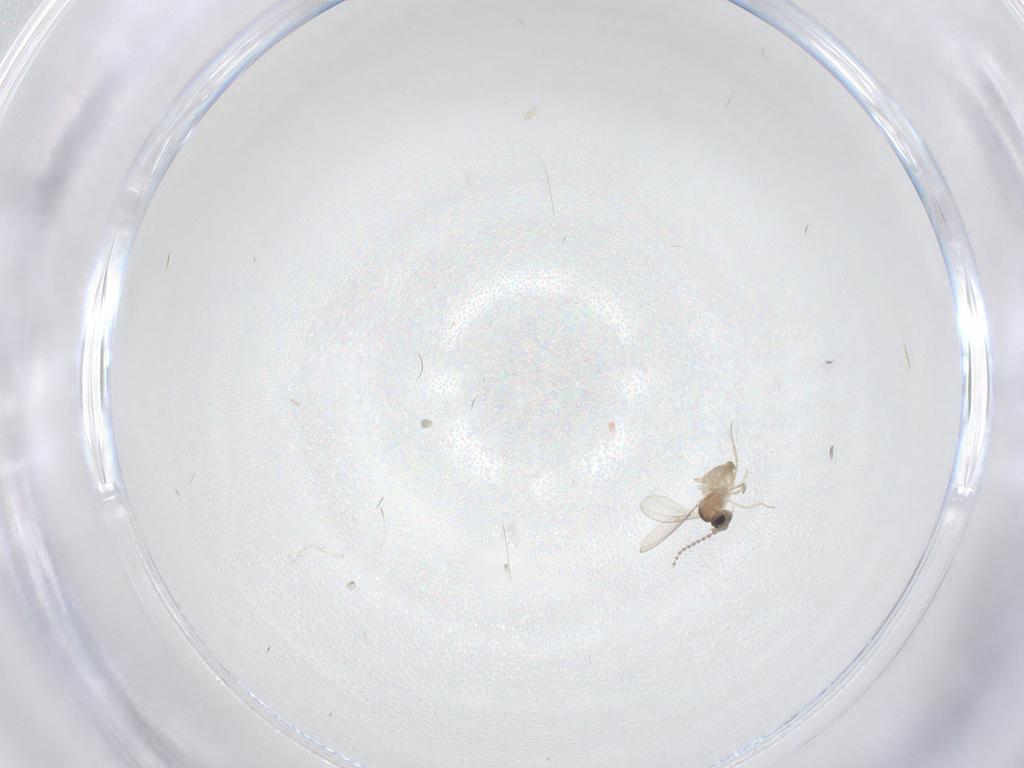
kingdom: Animalia
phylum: Arthropoda
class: Insecta
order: Diptera
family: Cecidomyiidae
